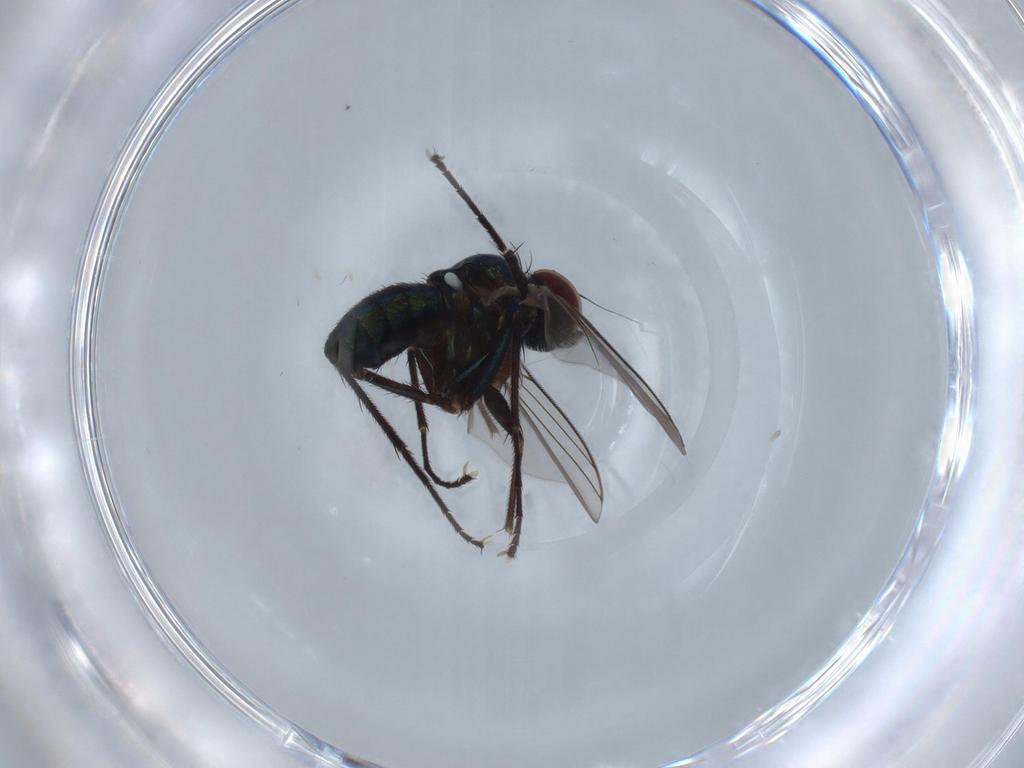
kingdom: Animalia
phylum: Arthropoda
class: Insecta
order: Diptera
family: Dolichopodidae
